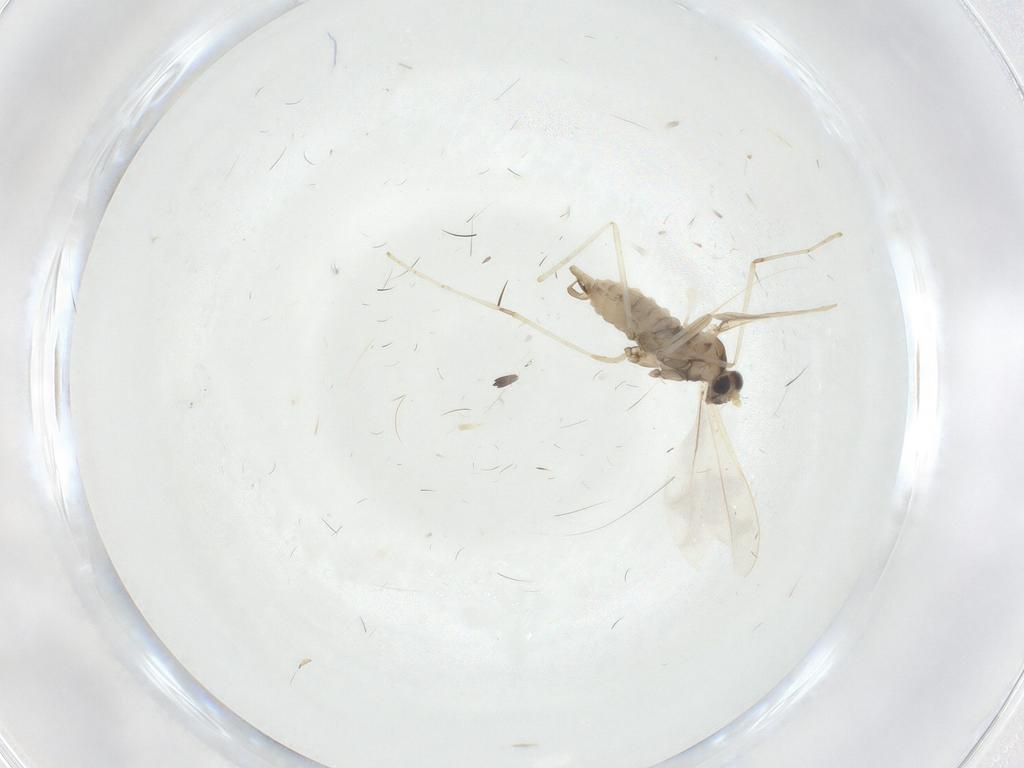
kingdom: Animalia
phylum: Arthropoda
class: Insecta
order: Diptera
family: Cecidomyiidae
